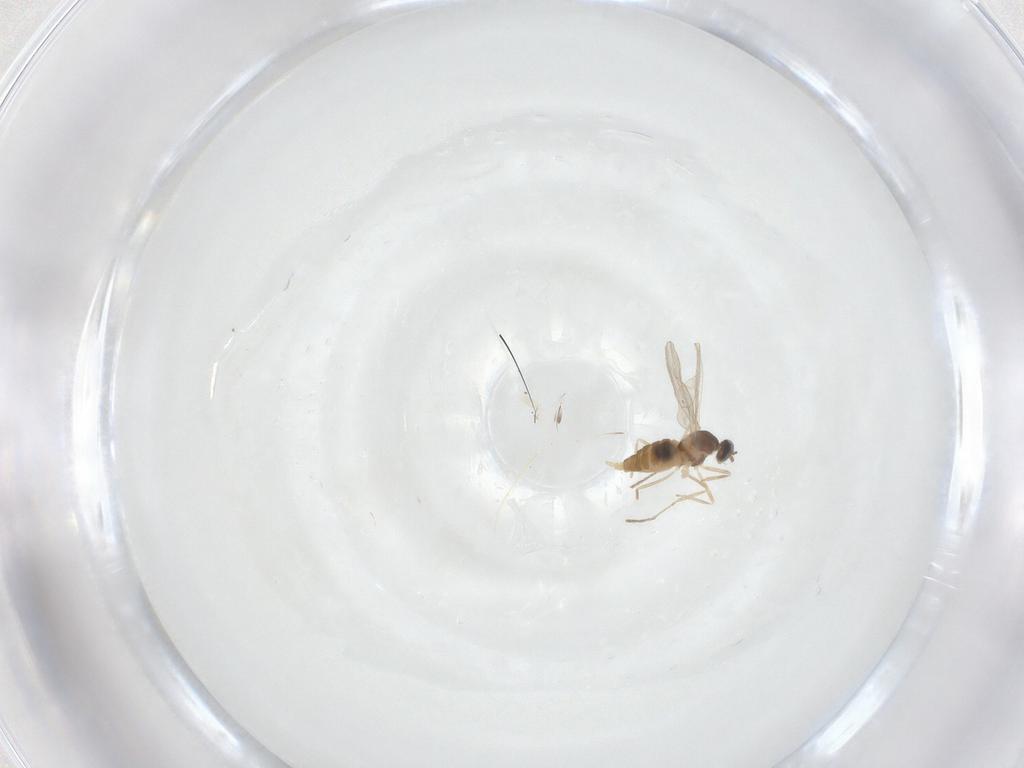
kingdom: Animalia
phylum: Arthropoda
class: Insecta
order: Diptera
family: Cecidomyiidae
